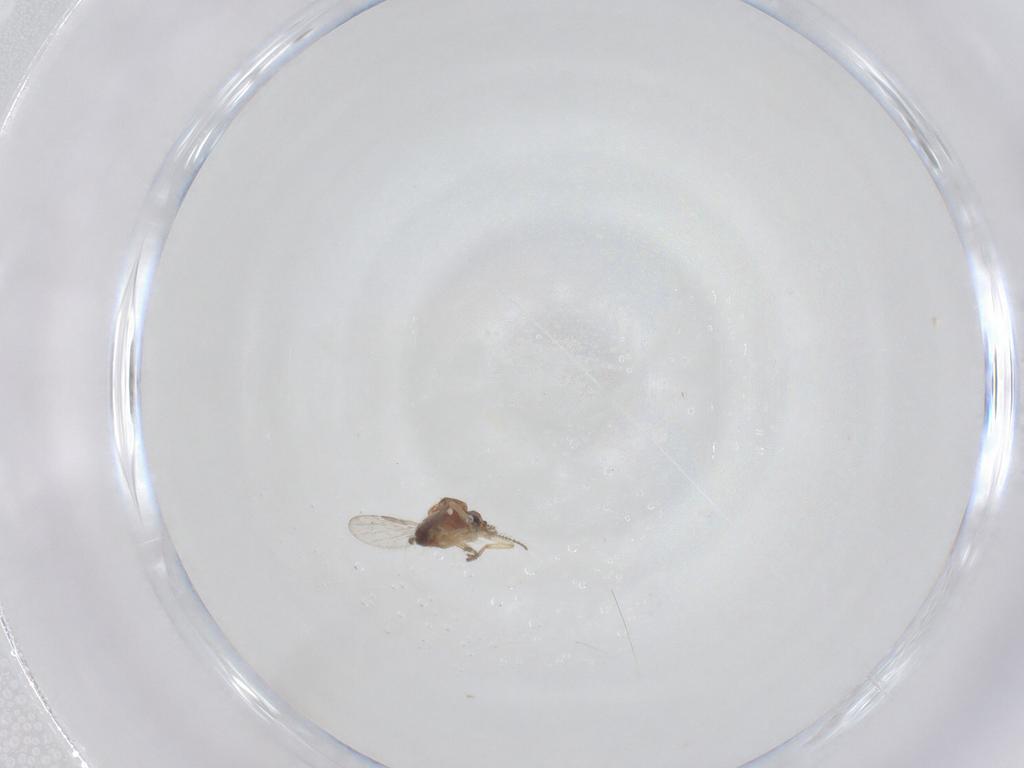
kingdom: Animalia
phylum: Arthropoda
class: Insecta
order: Diptera
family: Ceratopogonidae
